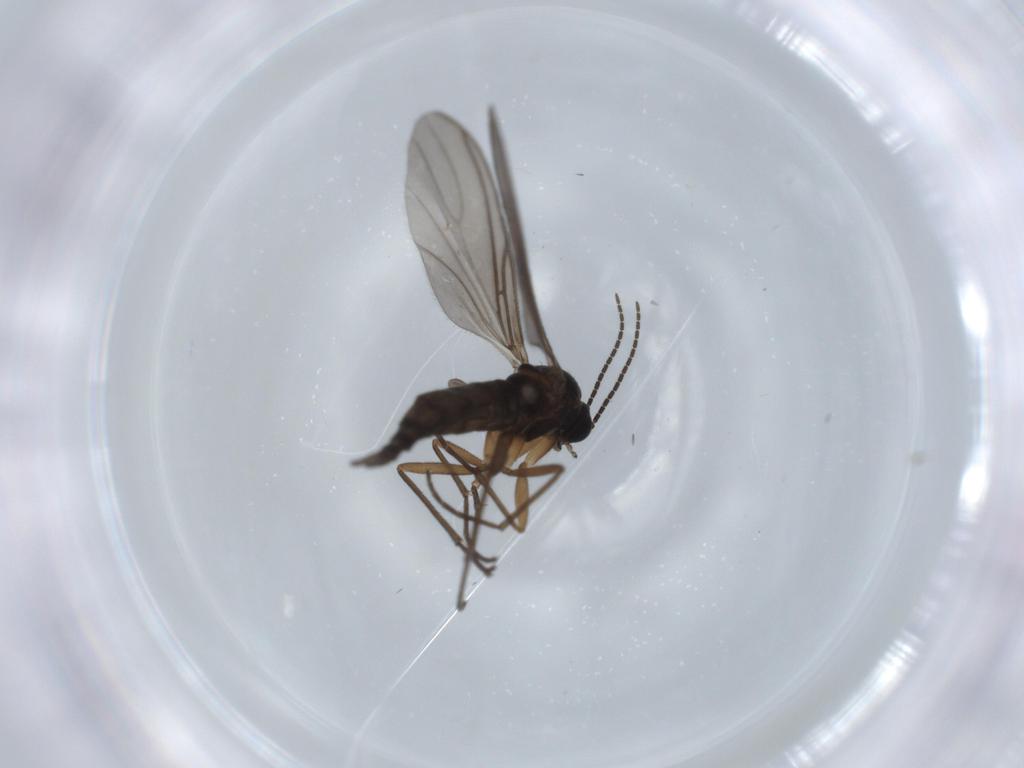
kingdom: Animalia
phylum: Arthropoda
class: Insecta
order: Diptera
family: Sciaridae
